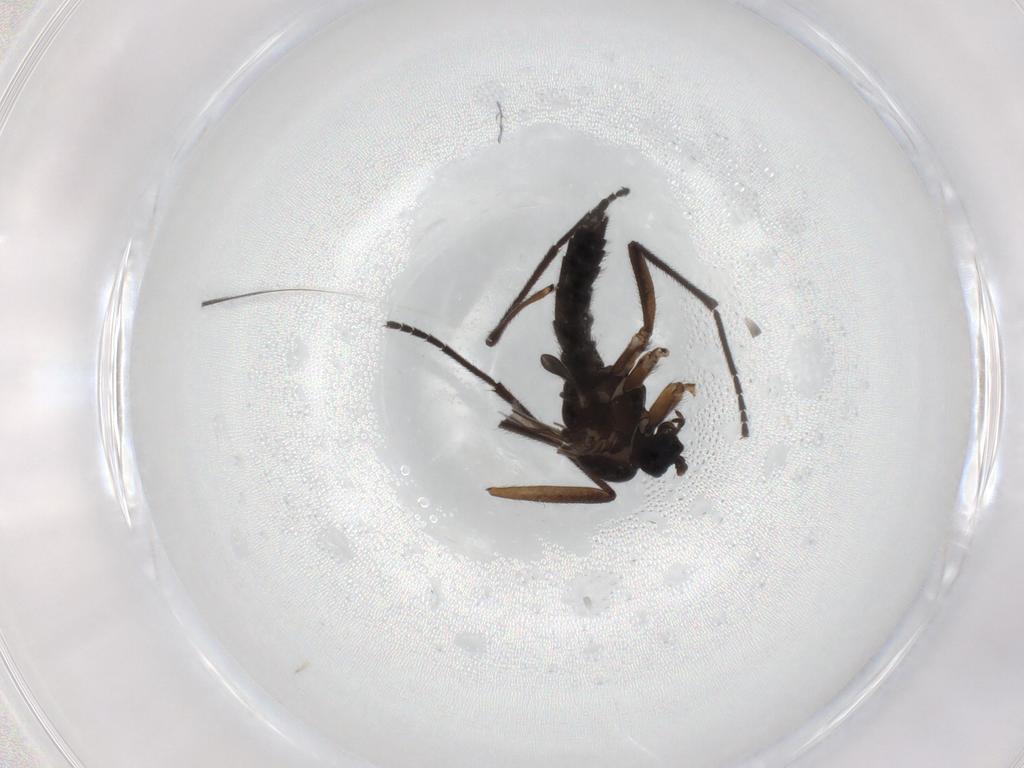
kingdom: Animalia
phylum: Arthropoda
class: Insecta
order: Diptera
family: Sciaridae
